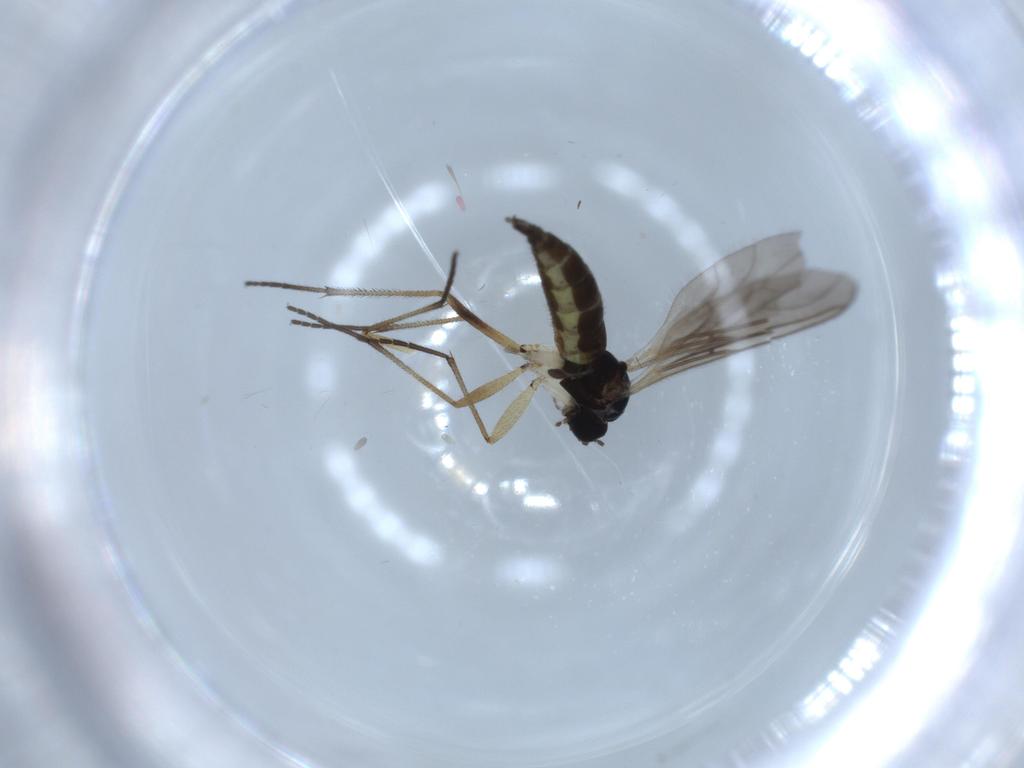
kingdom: Animalia
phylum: Arthropoda
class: Insecta
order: Diptera
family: Sciaridae
